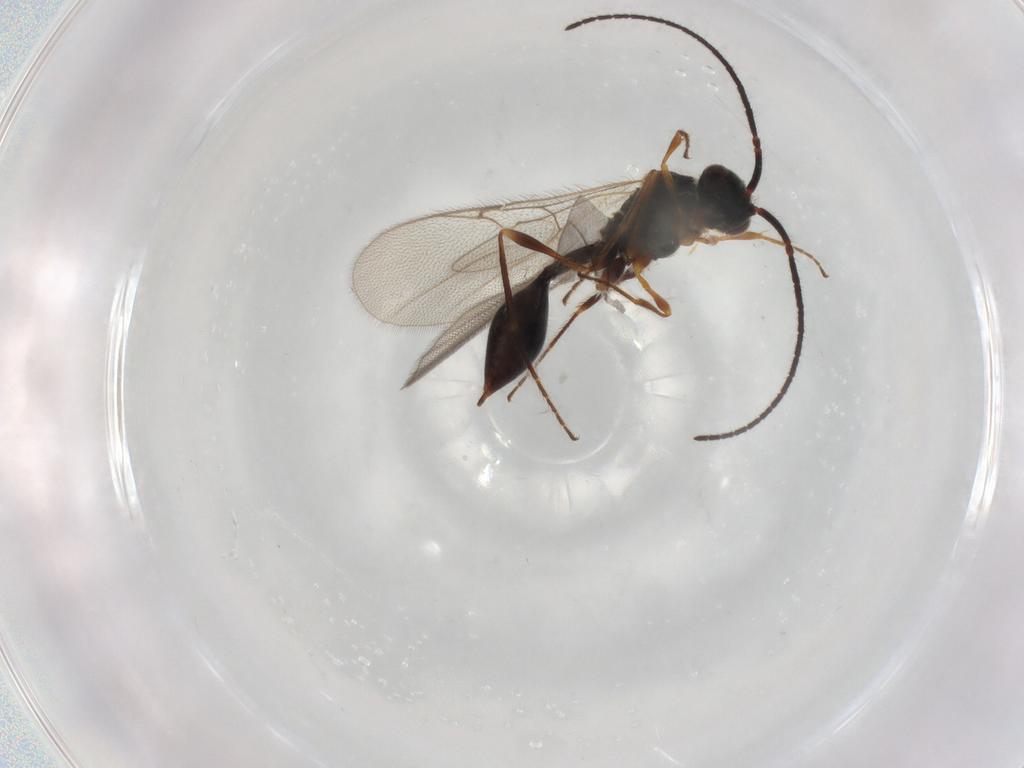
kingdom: Animalia
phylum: Arthropoda
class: Insecta
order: Hymenoptera
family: Diapriidae
